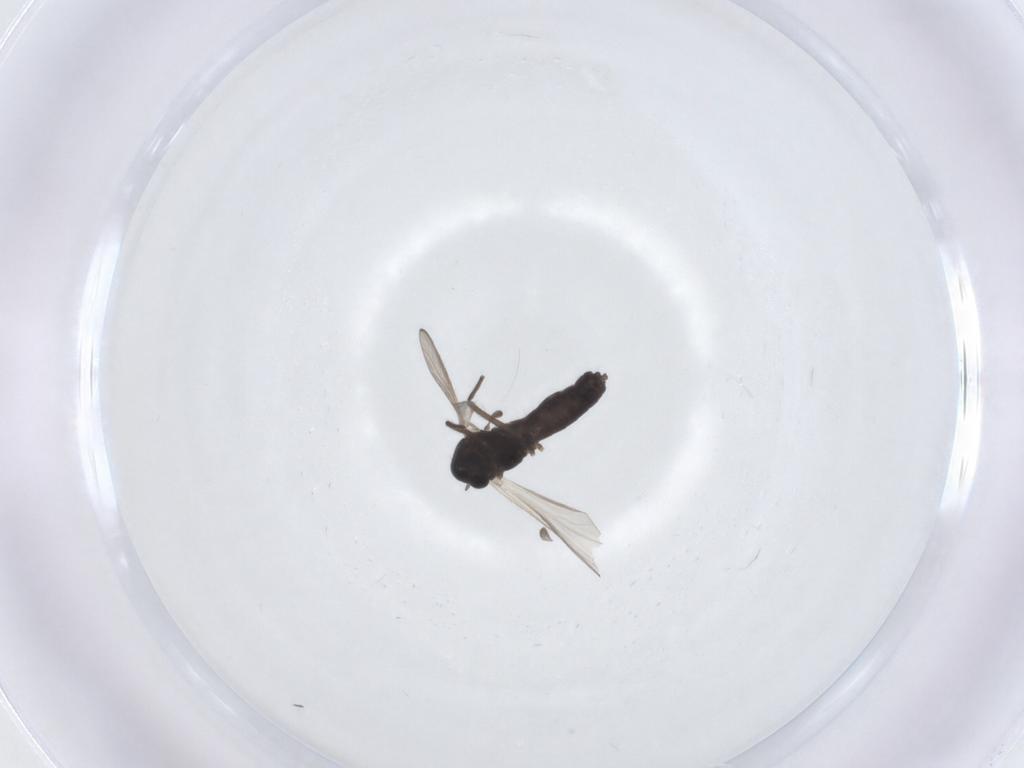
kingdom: Animalia
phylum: Arthropoda
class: Insecta
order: Diptera
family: Chironomidae
